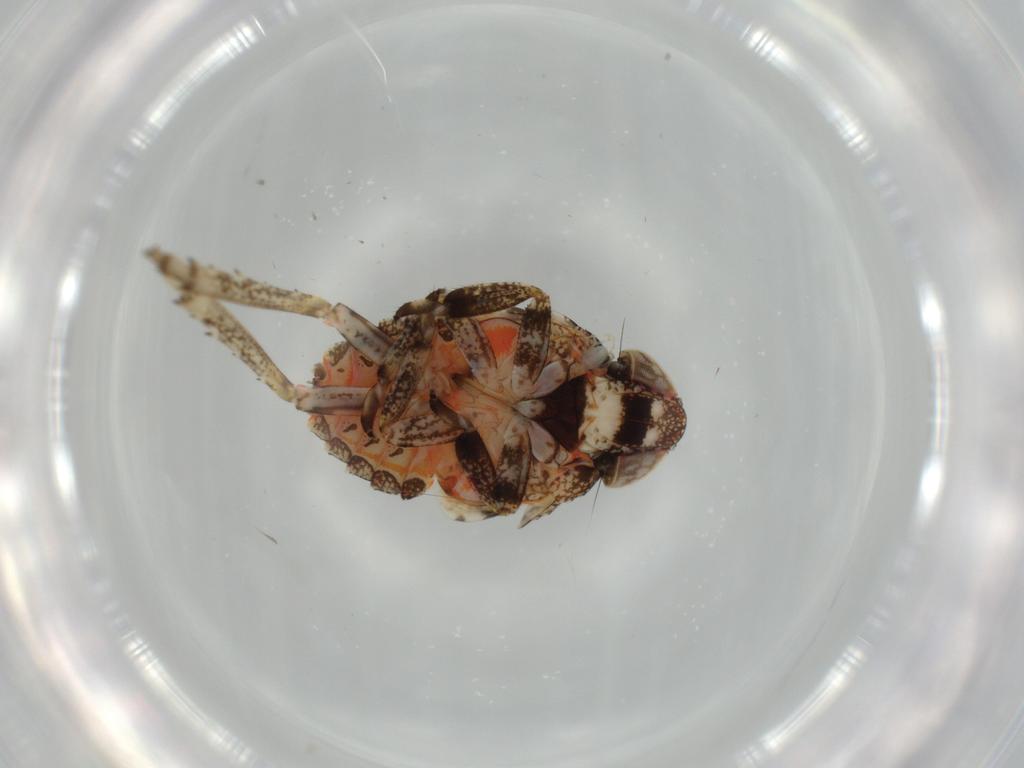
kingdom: Animalia
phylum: Arthropoda
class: Insecta
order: Hemiptera
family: Issidae
